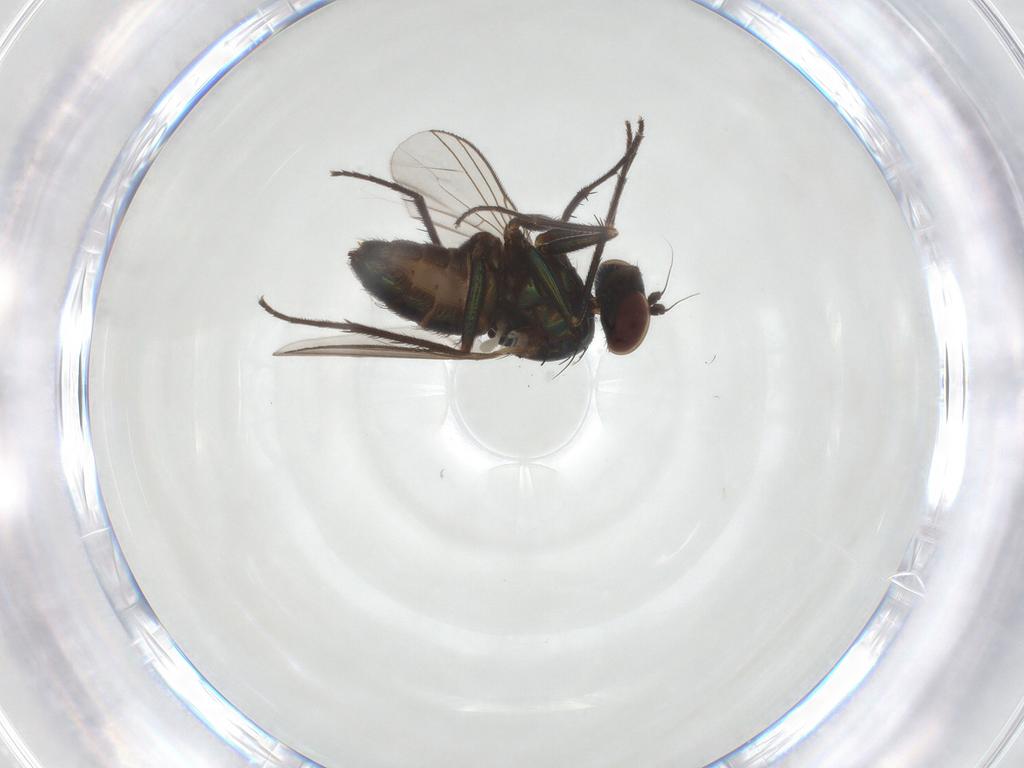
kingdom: Animalia
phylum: Arthropoda
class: Insecta
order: Diptera
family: Dolichopodidae
